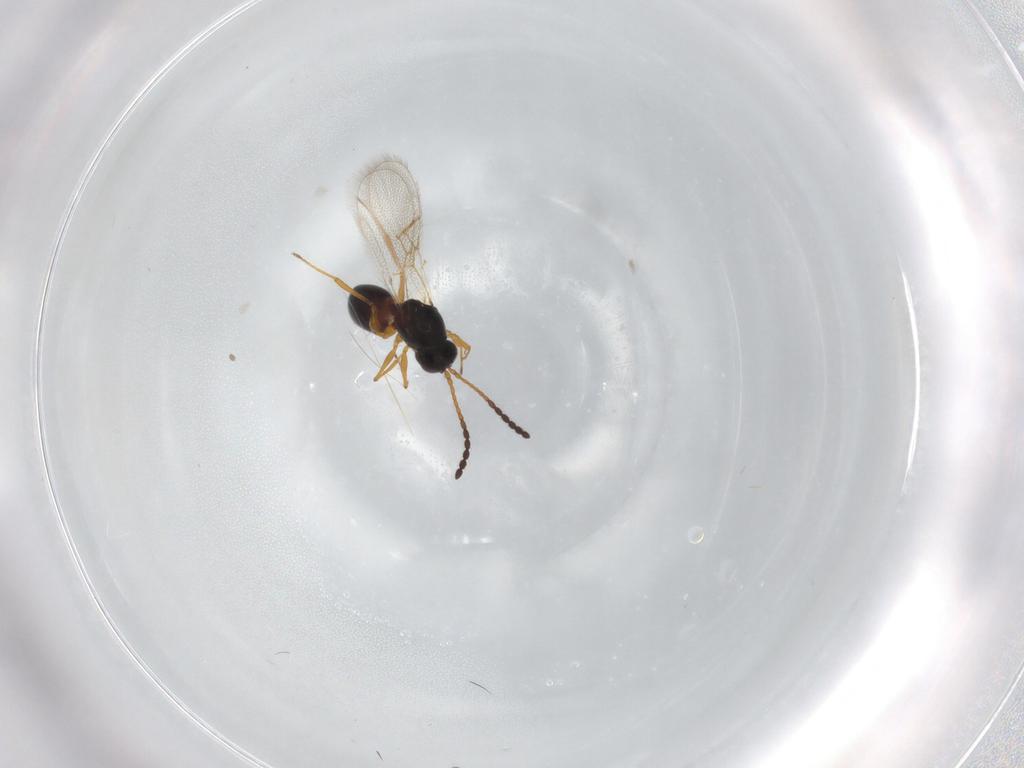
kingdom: Animalia
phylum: Arthropoda
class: Insecta
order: Hymenoptera
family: Figitidae
